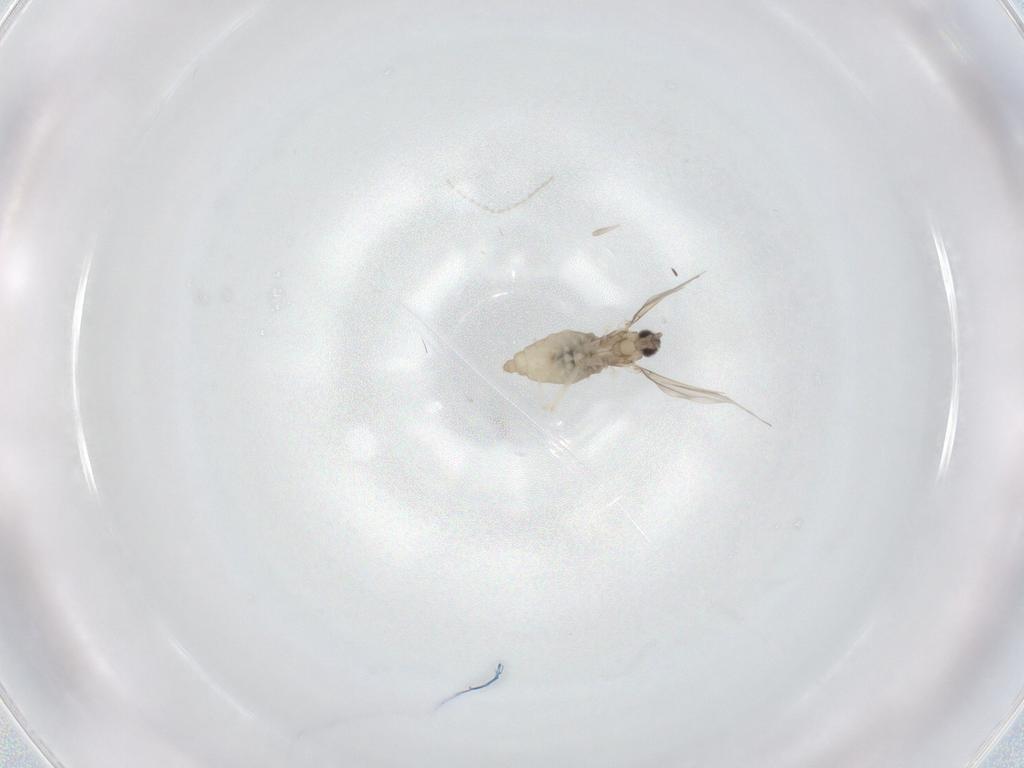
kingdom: Animalia
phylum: Arthropoda
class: Insecta
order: Diptera
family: Cecidomyiidae
